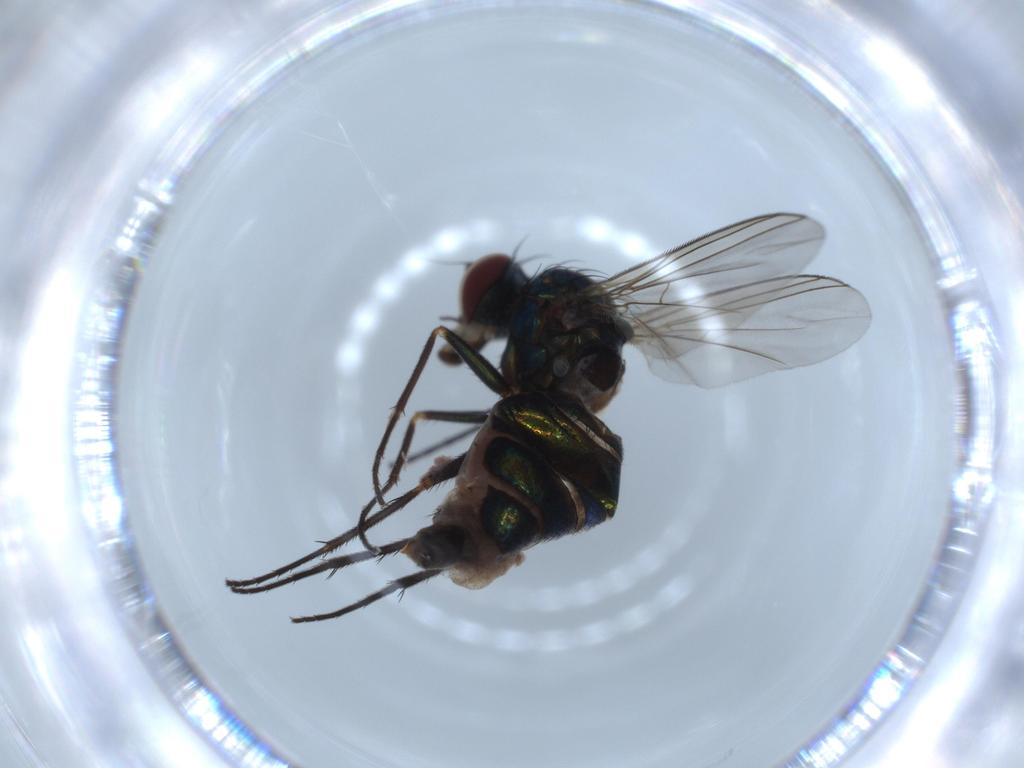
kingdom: Animalia
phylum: Arthropoda
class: Insecta
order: Diptera
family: Dolichopodidae
